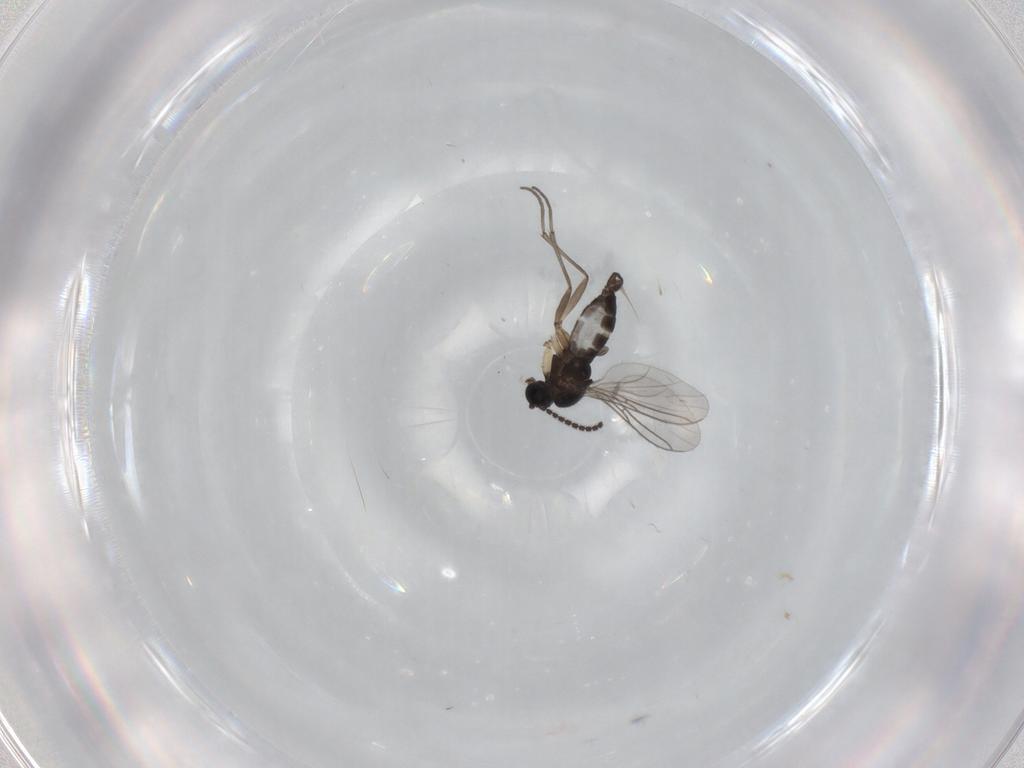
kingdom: Animalia
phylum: Arthropoda
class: Insecta
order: Diptera
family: Sciaridae
